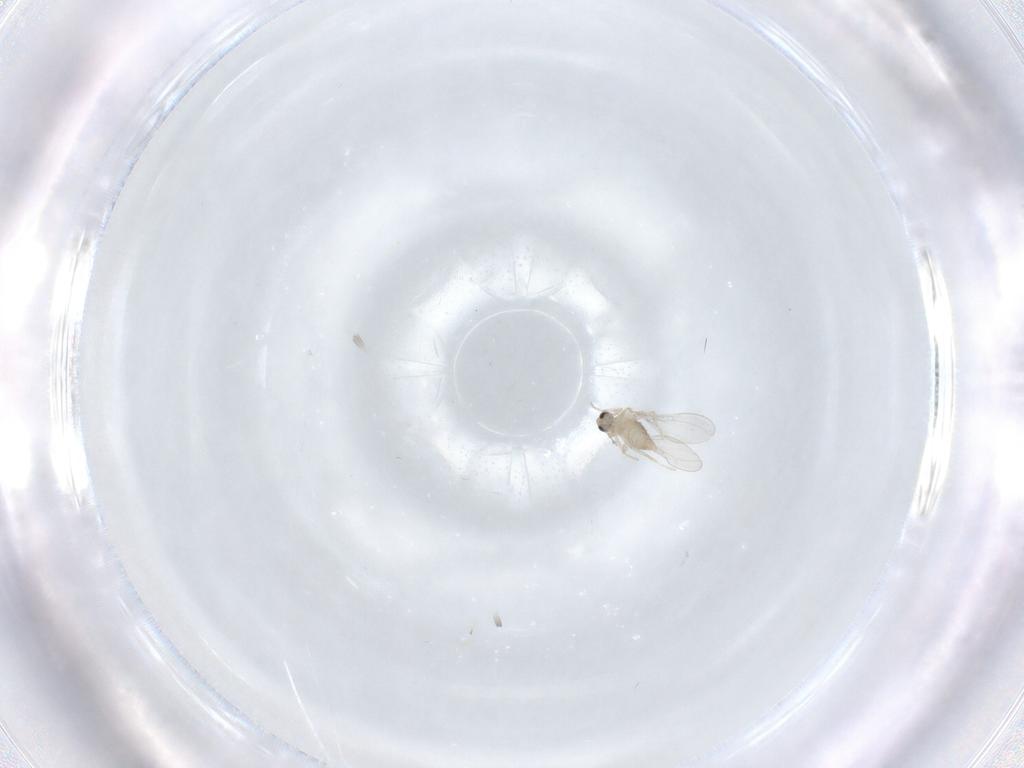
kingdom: Animalia
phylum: Arthropoda
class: Insecta
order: Diptera
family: Cecidomyiidae
